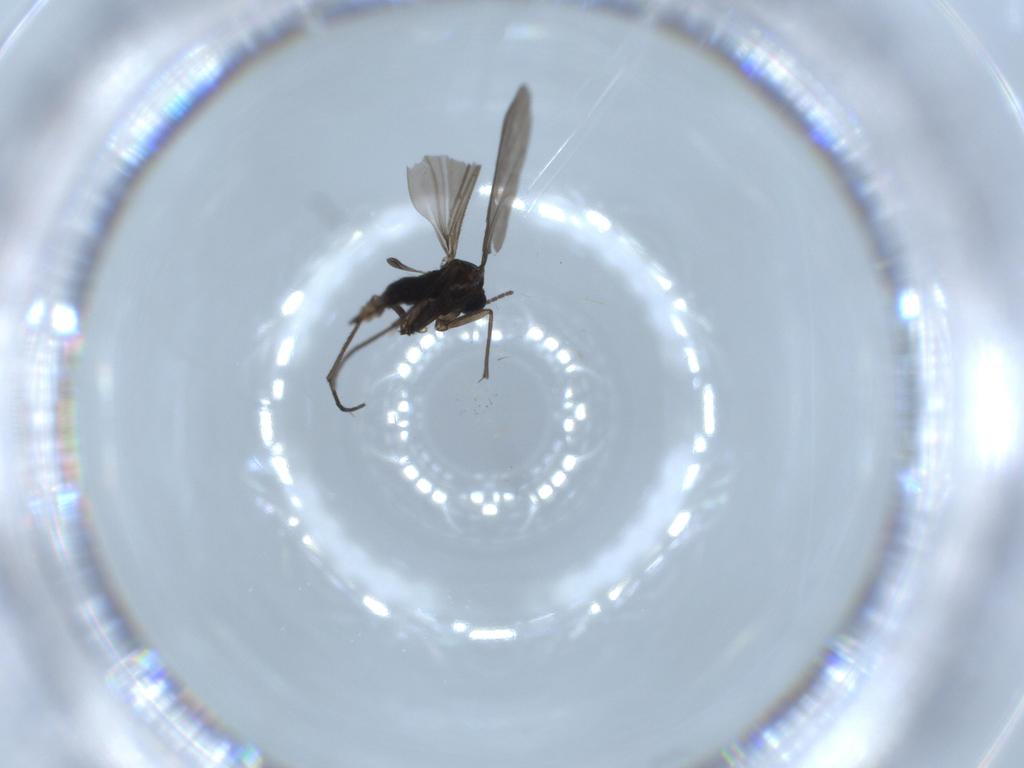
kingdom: Animalia
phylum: Arthropoda
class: Insecta
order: Diptera
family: Sciaridae
